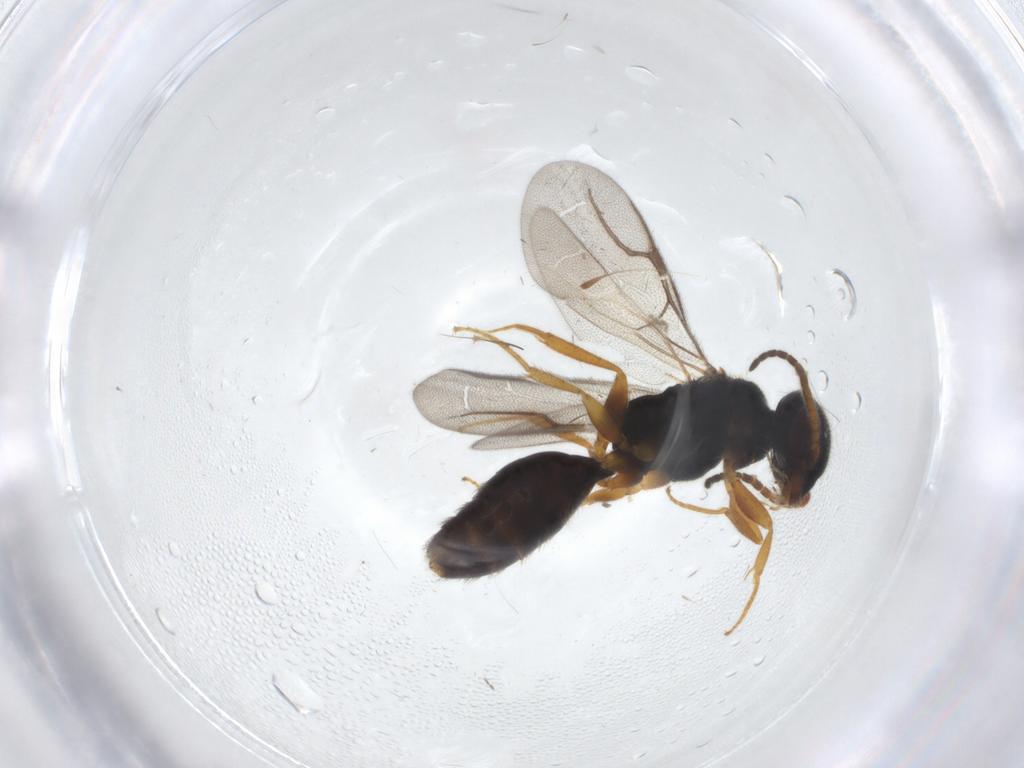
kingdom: Animalia
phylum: Arthropoda
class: Insecta
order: Hymenoptera
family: Bethylidae
